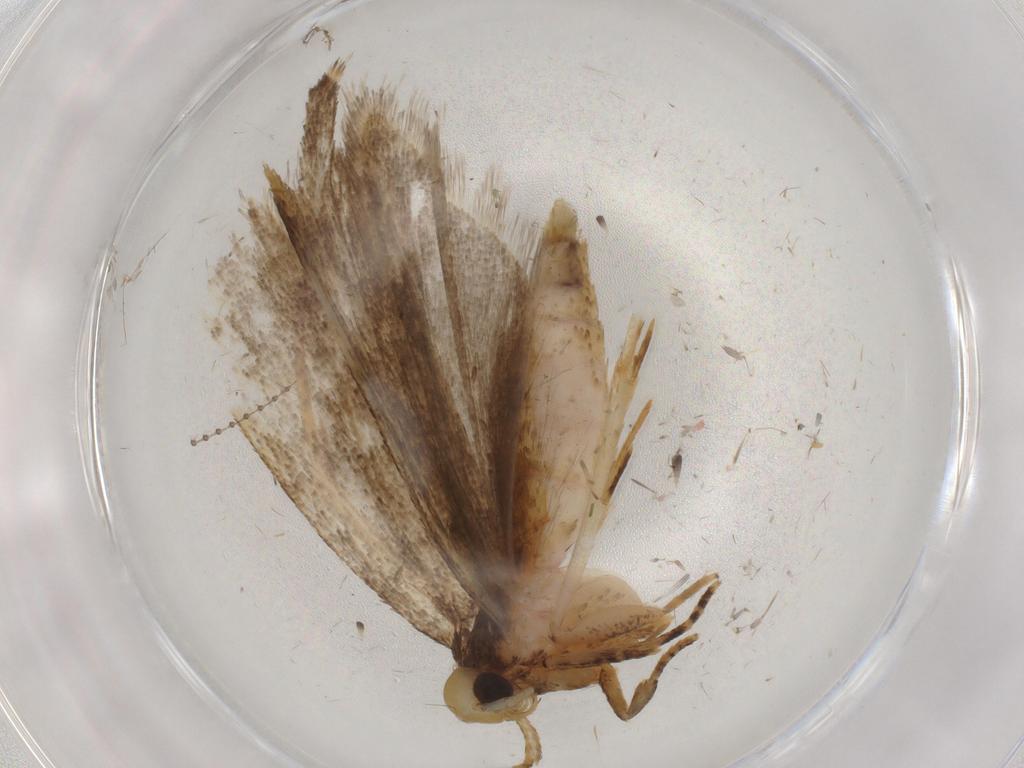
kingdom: Animalia
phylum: Arthropoda
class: Insecta
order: Lepidoptera
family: Autostichidae
